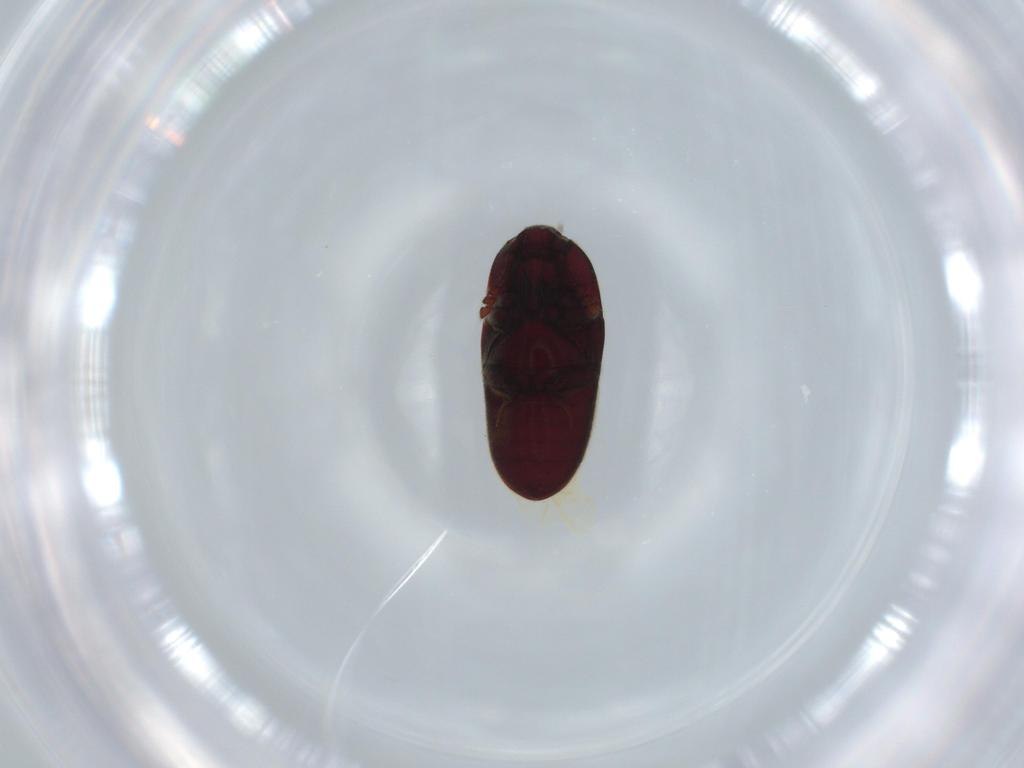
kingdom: Animalia
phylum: Arthropoda
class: Insecta
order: Coleoptera
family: Throscidae
